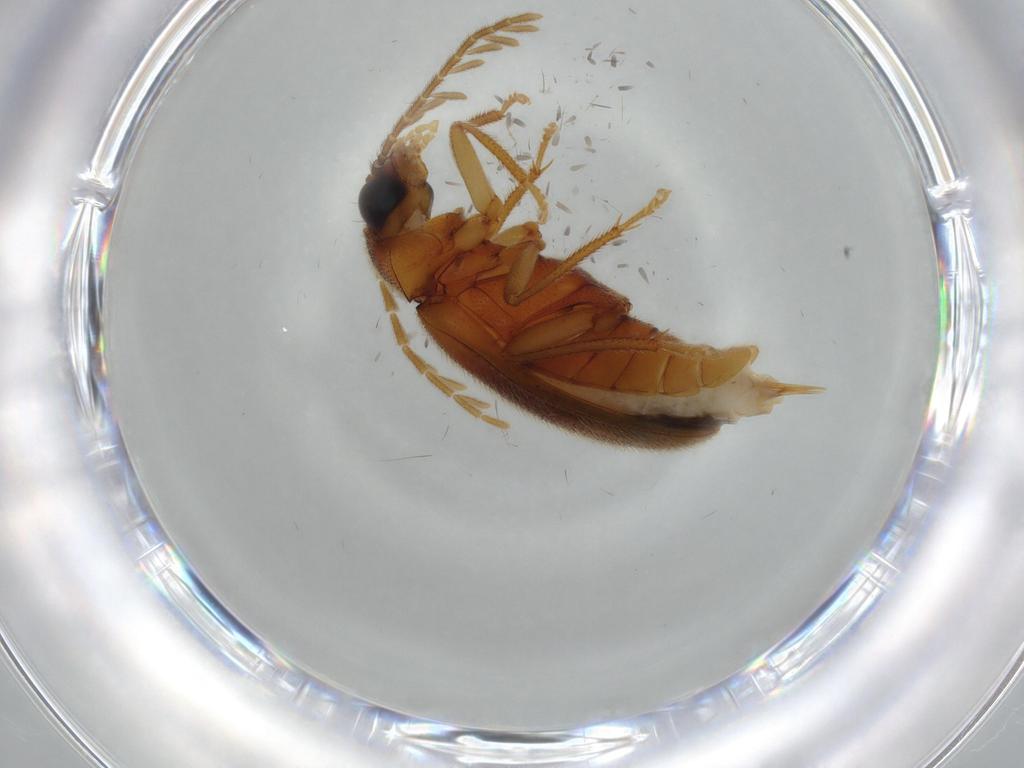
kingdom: Animalia
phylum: Arthropoda
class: Insecta
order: Coleoptera
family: Ptilodactylidae
